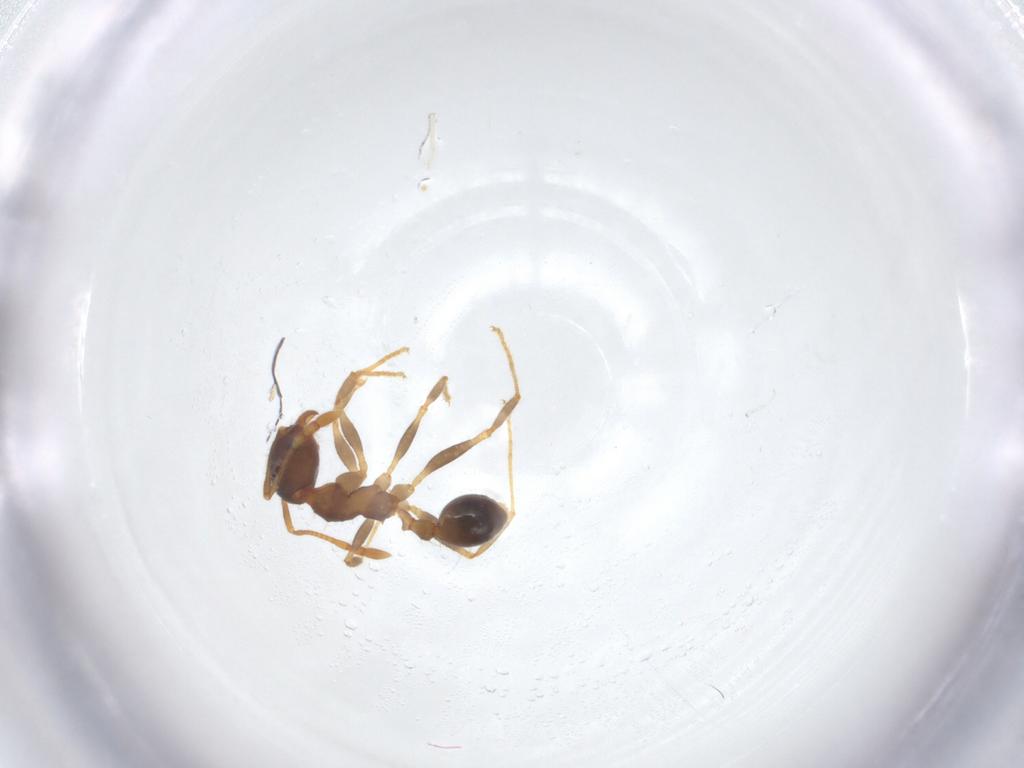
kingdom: Animalia
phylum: Arthropoda
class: Insecta
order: Hymenoptera
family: Formicidae
